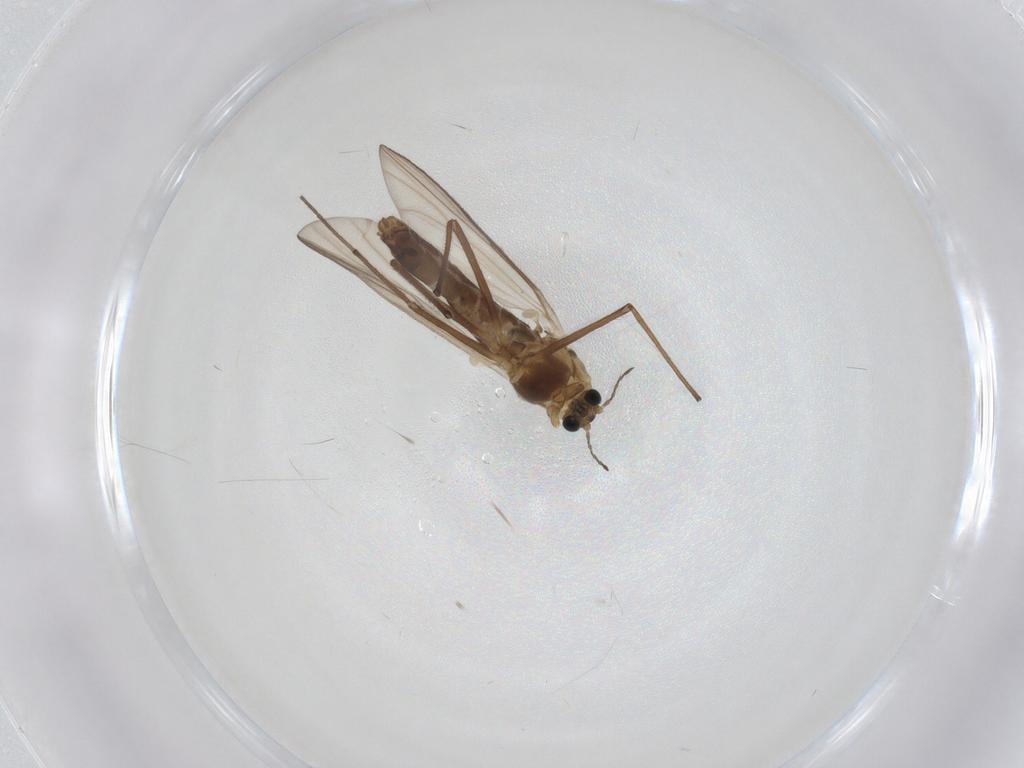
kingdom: Animalia
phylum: Arthropoda
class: Insecta
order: Diptera
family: Chironomidae
